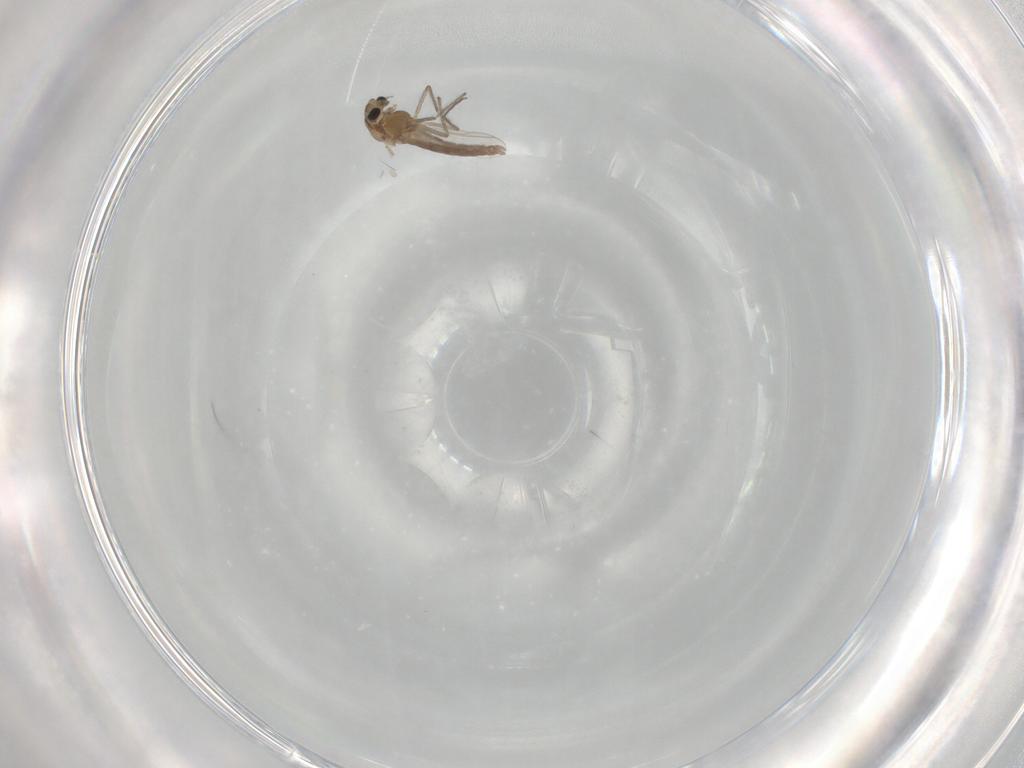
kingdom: Animalia
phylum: Arthropoda
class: Insecta
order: Diptera
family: Chironomidae
